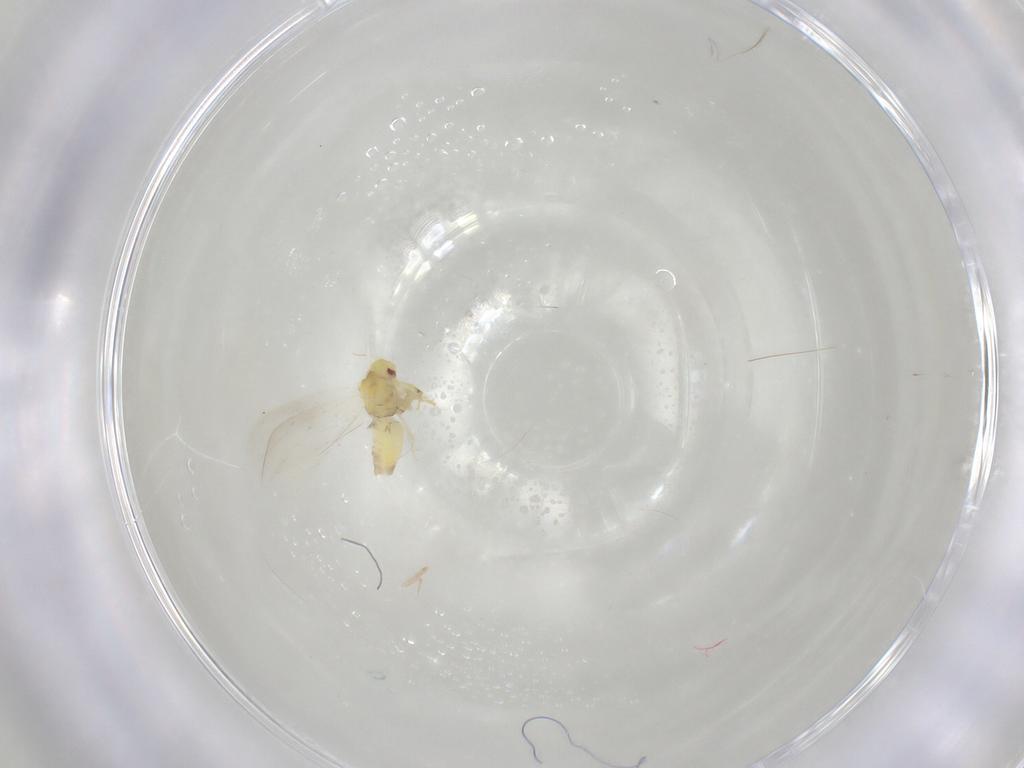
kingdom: Animalia
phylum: Arthropoda
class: Insecta
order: Hemiptera
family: Aleyrodidae
